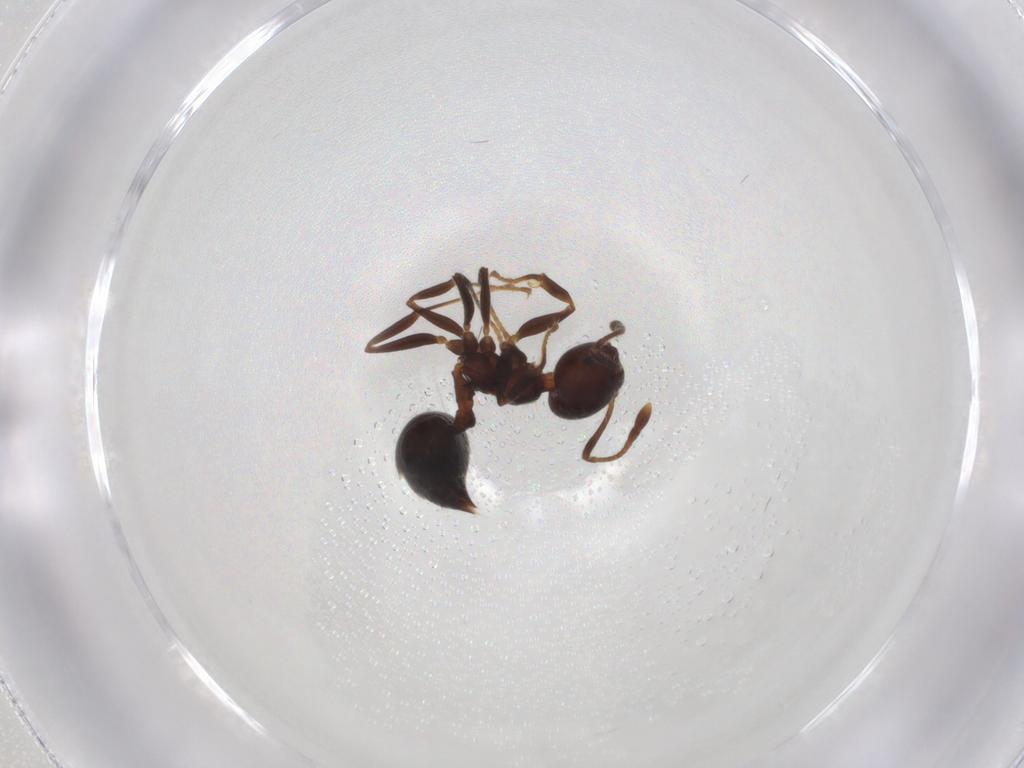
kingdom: Animalia
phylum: Arthropoda
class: Insecta
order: Hymenoptera
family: Formicidae
